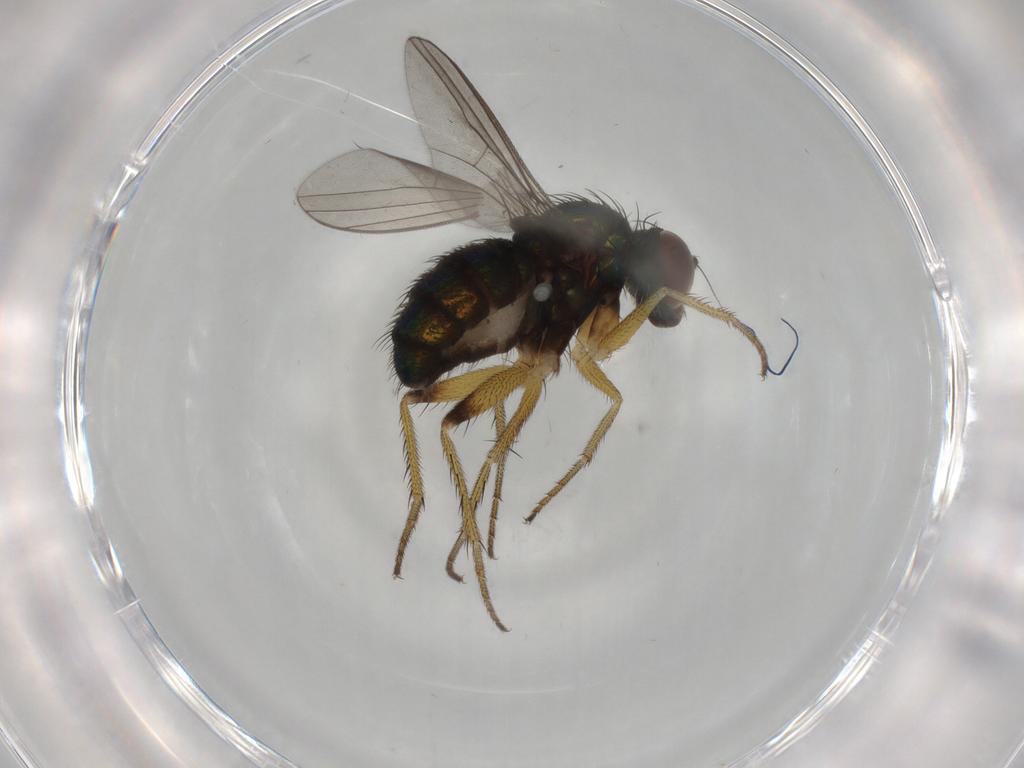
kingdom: Animalia
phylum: Arthropoda
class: Insecta
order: Diptera
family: Dolichopodidae
